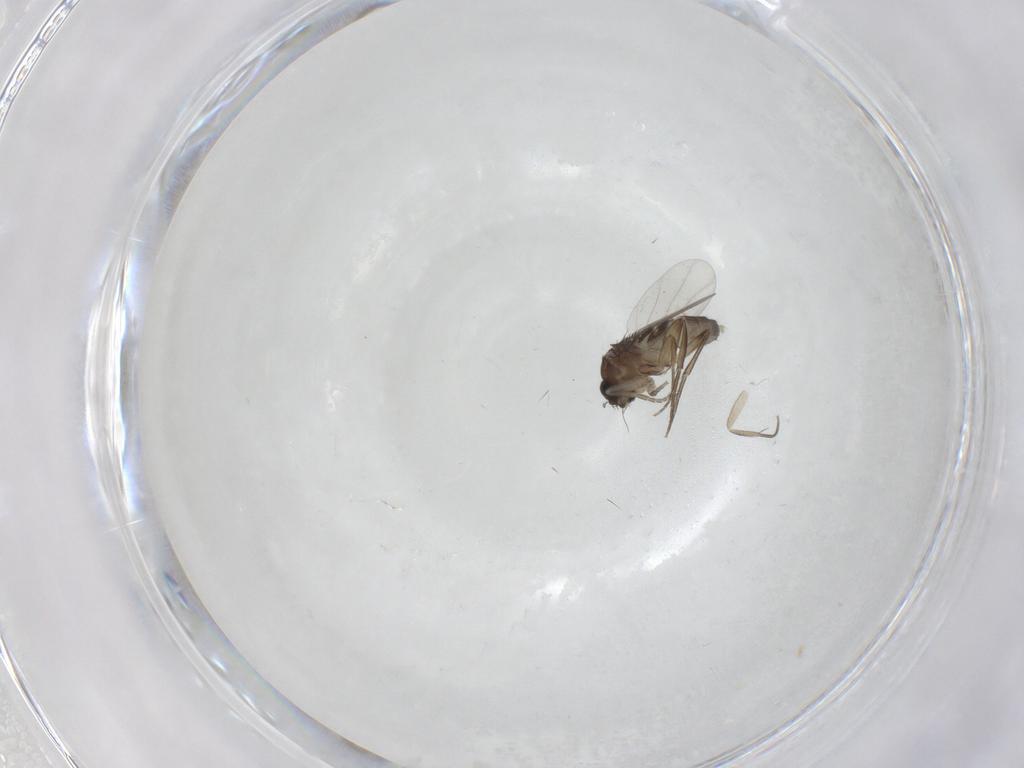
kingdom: Animalia
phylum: Arthropoda
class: Insecta
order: Diptera
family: Phoridae
